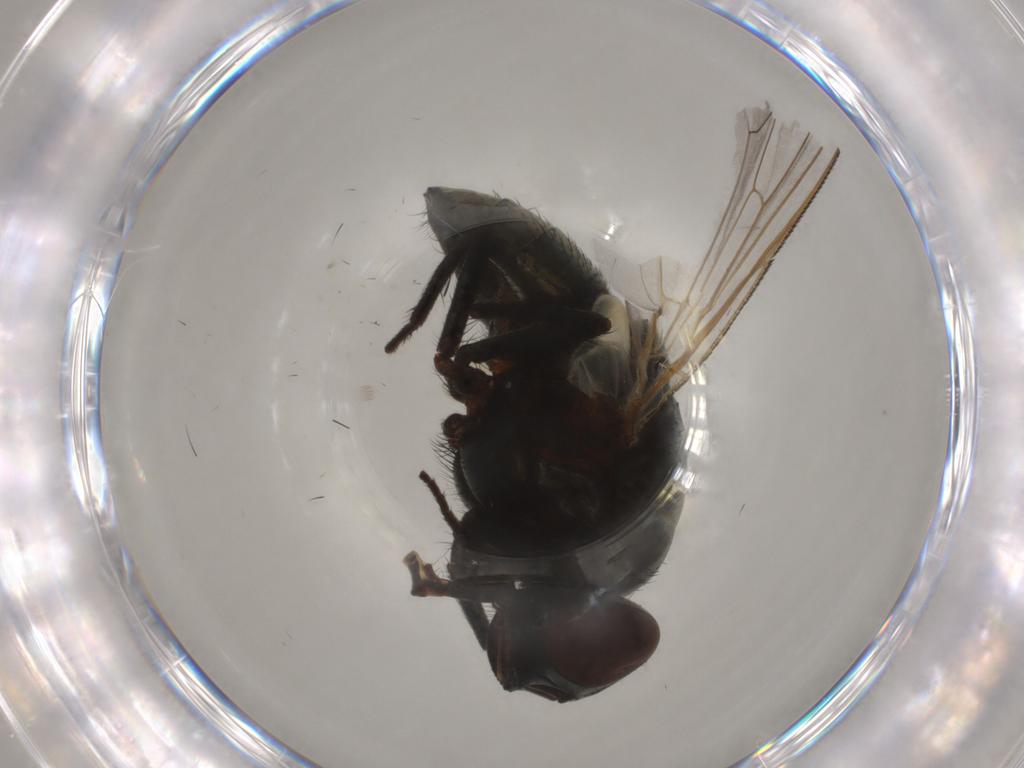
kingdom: Animalia
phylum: Arthropoda
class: Insecta
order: Diptera
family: Muscidae
